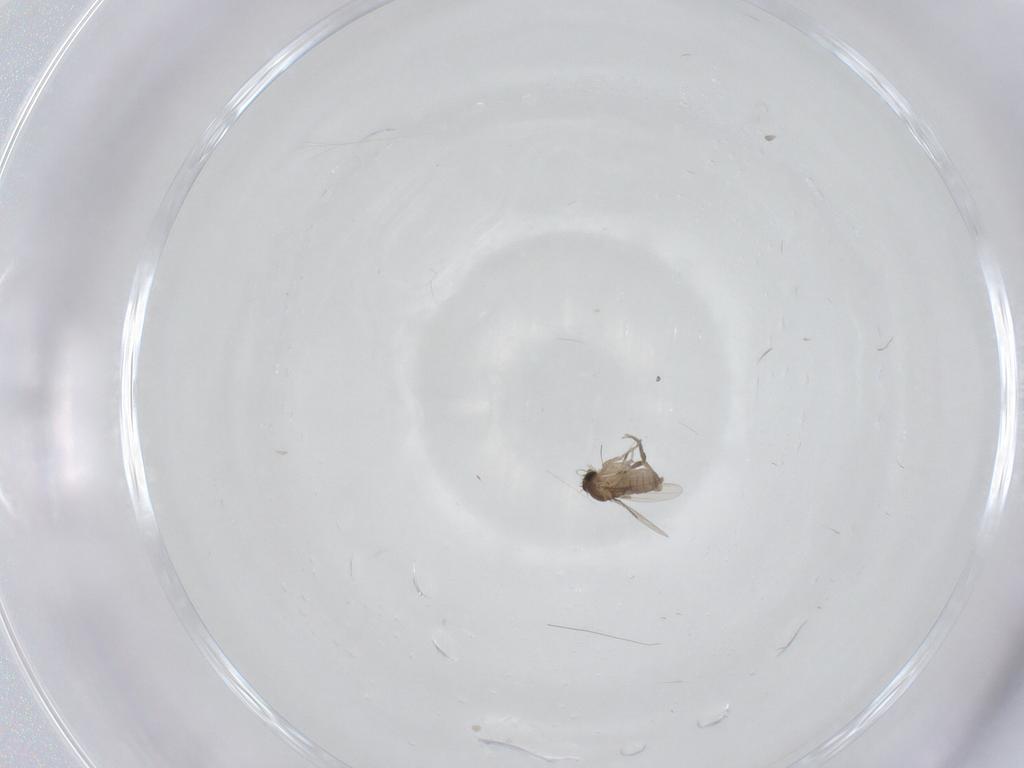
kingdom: Animalia
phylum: Arthropoda
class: Insecta
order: Diptera
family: Phoridae
